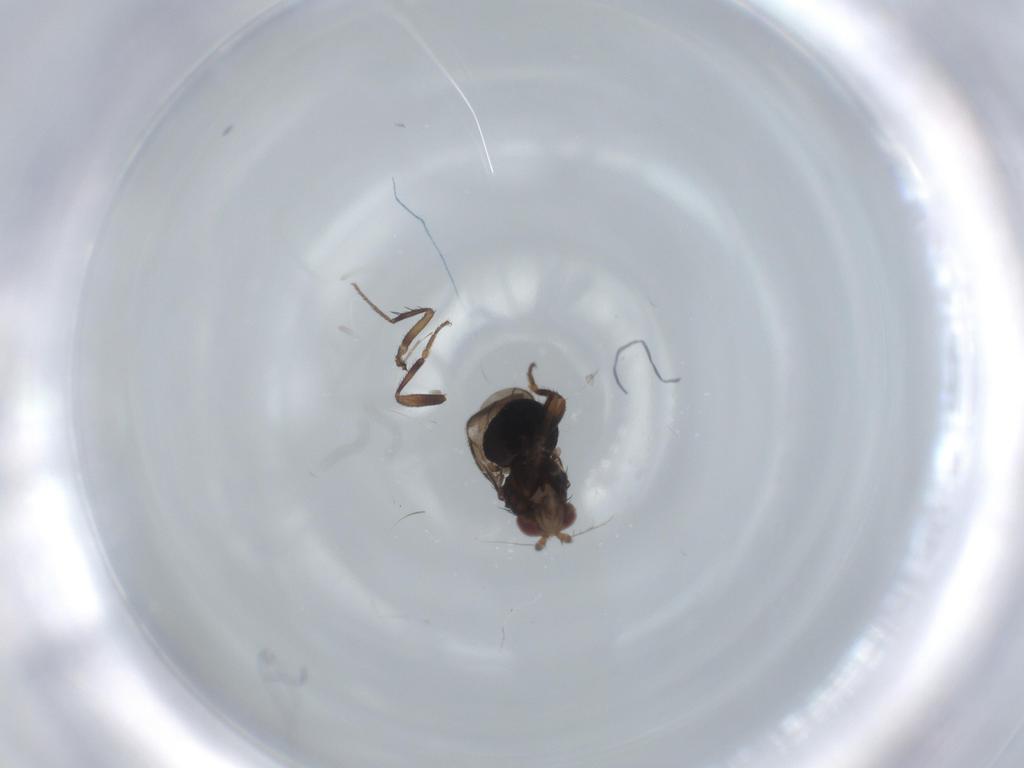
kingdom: Animalia
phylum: Arthropoda
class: Insecta
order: Diptera
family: Sphaeroceridae
